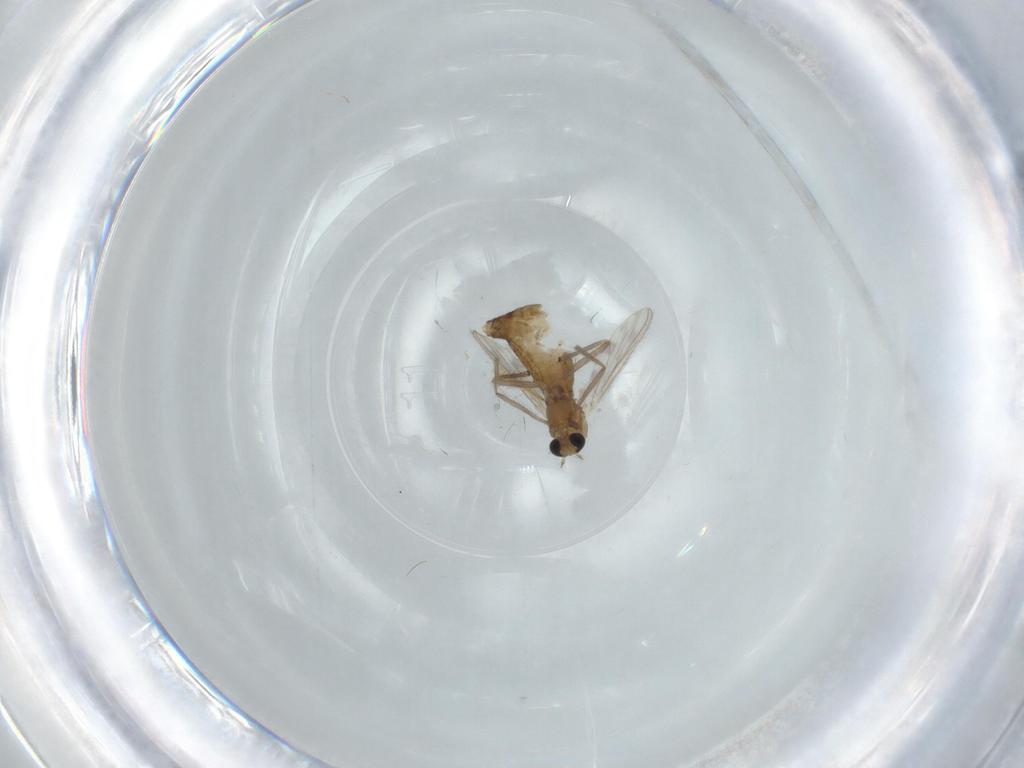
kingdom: Animalia
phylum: Arthropoda
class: Insecta
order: Diptera
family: Chironomidae
